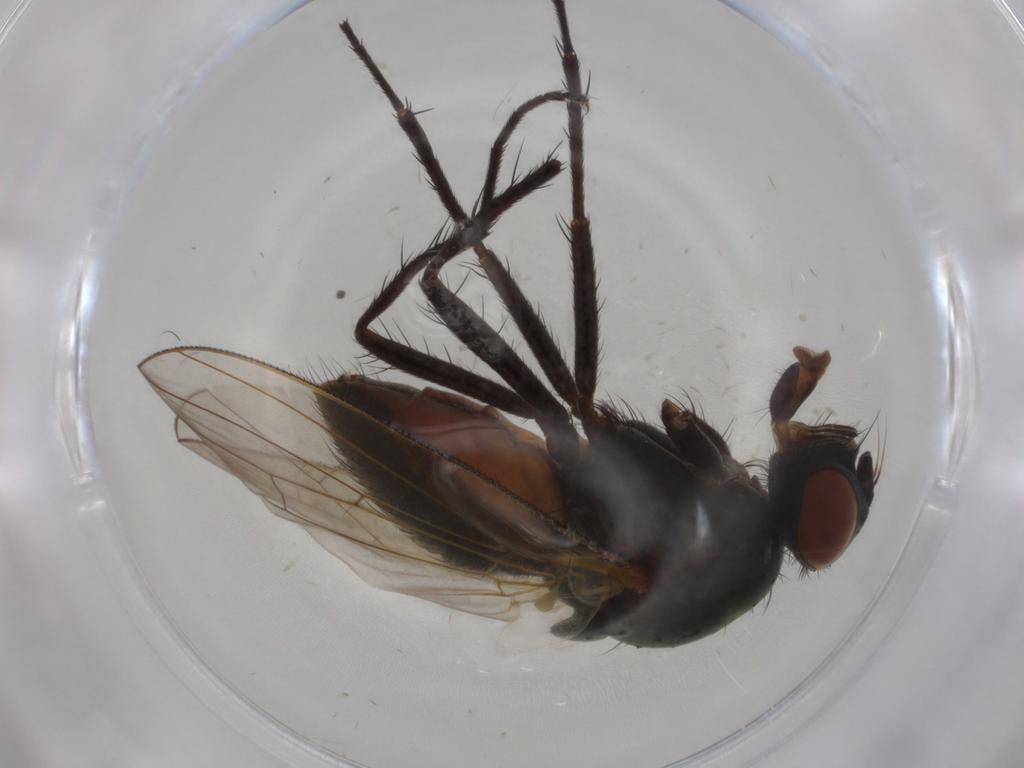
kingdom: Animalia
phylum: Arthropoda
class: Insecta
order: Diptera
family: Ceratopogonidae
